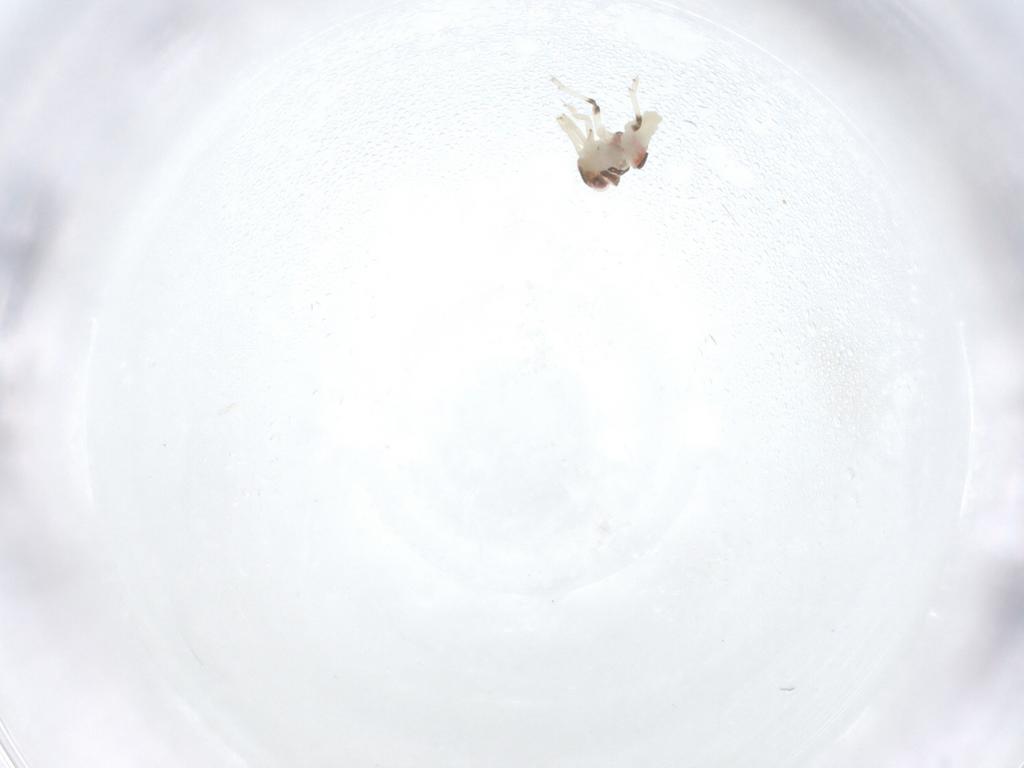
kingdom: Animalia
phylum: Arthropoda
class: Insecta
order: Hemiptera
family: Nogodinidae
